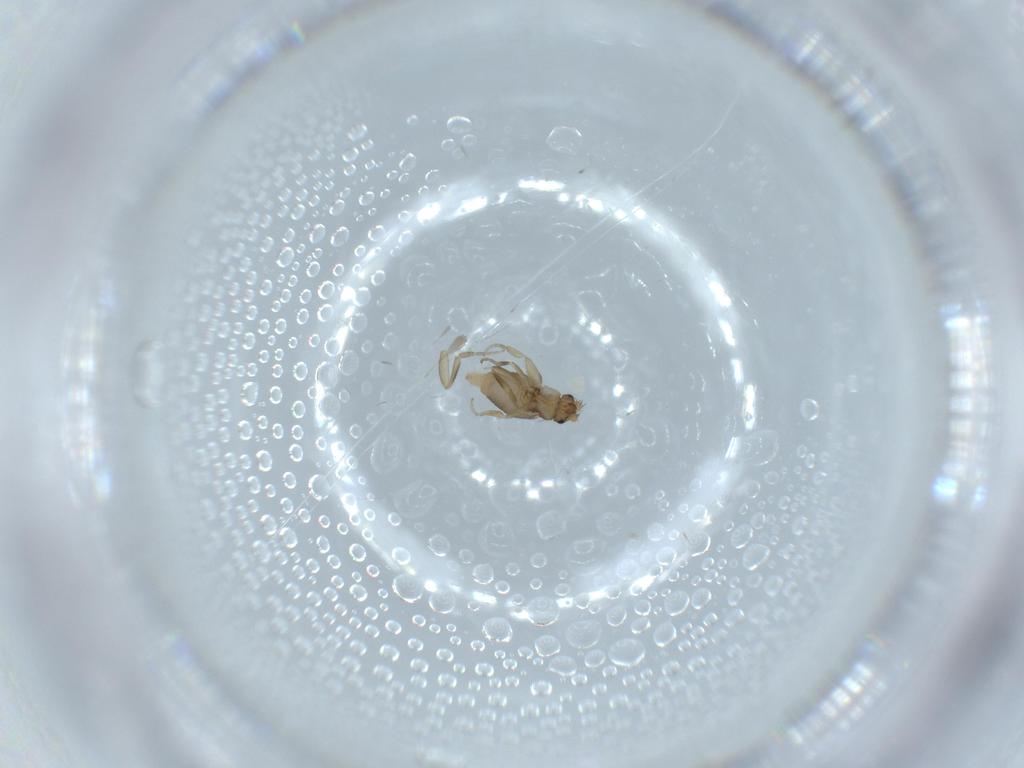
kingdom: Animalia
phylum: Arthropoda
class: Insecta
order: Diptera
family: Phoridae
